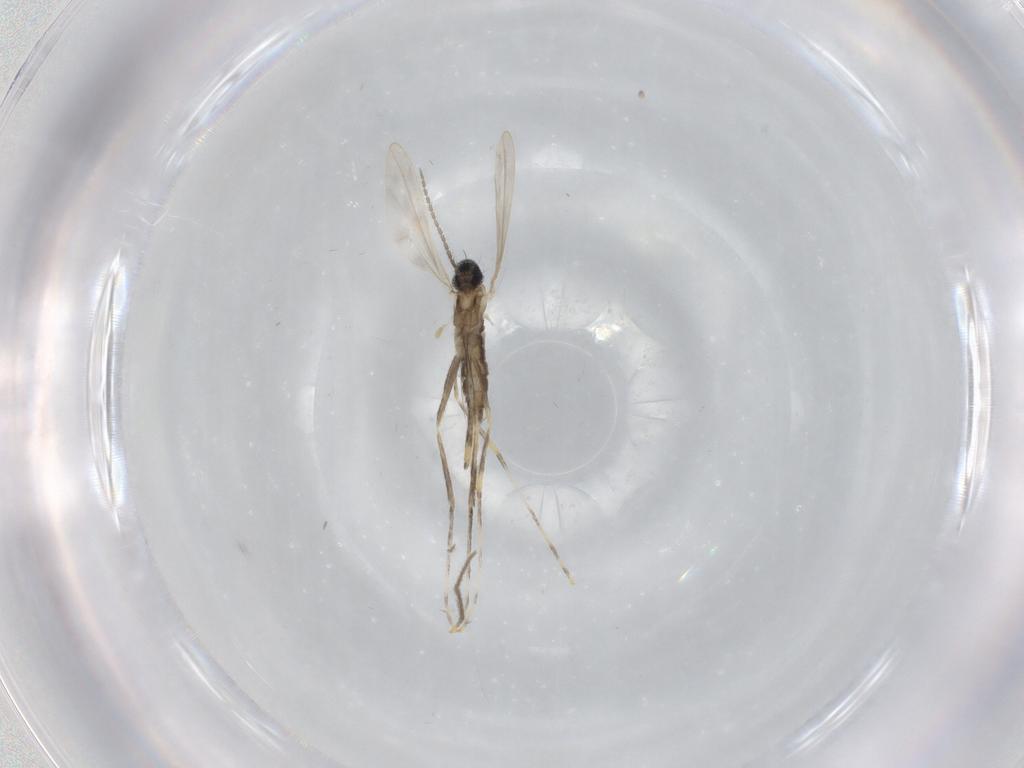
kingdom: Animalia
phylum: Arthropoda
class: Insecta
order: Diptera
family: Cecidomyiidae
